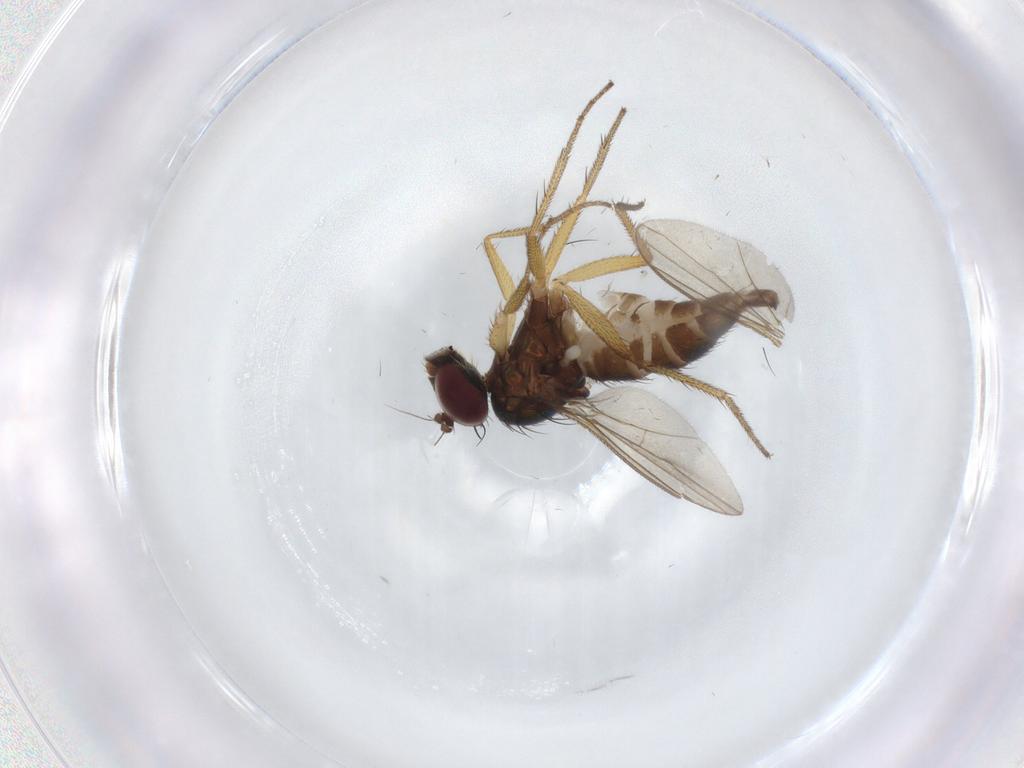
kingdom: Animalia
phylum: Arthropoda
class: Insecta
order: Diptera
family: Dolichopodidae
